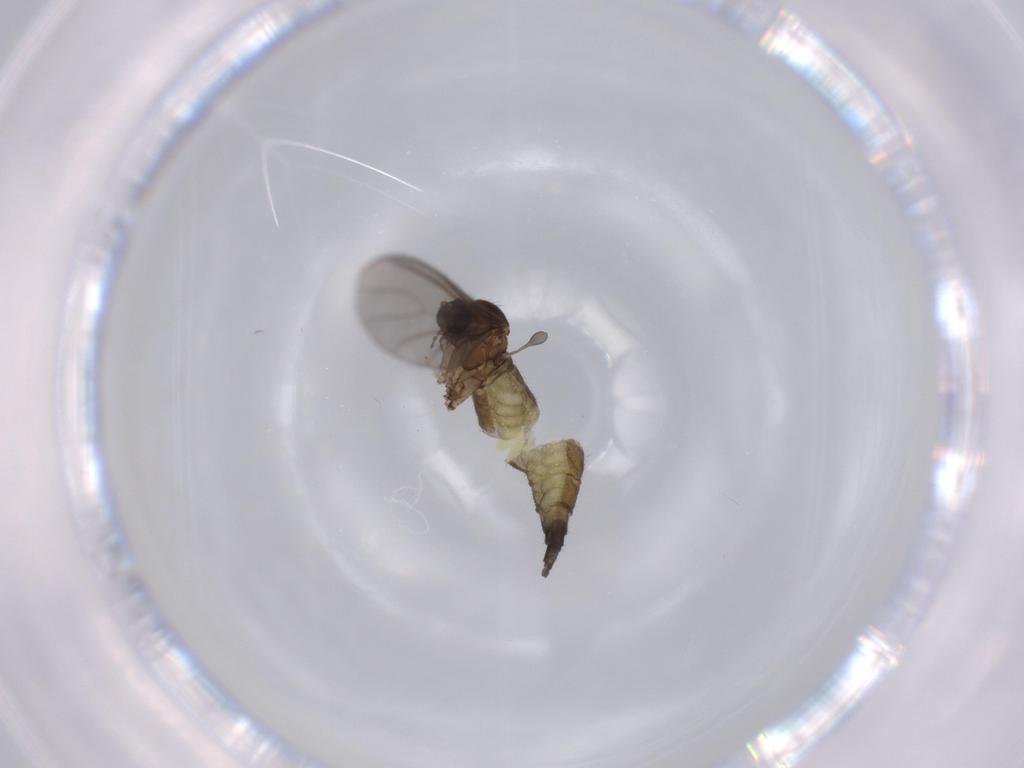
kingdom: Animalia
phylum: Arthropoda
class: Insecta
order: Diptera
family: Sciaridae
